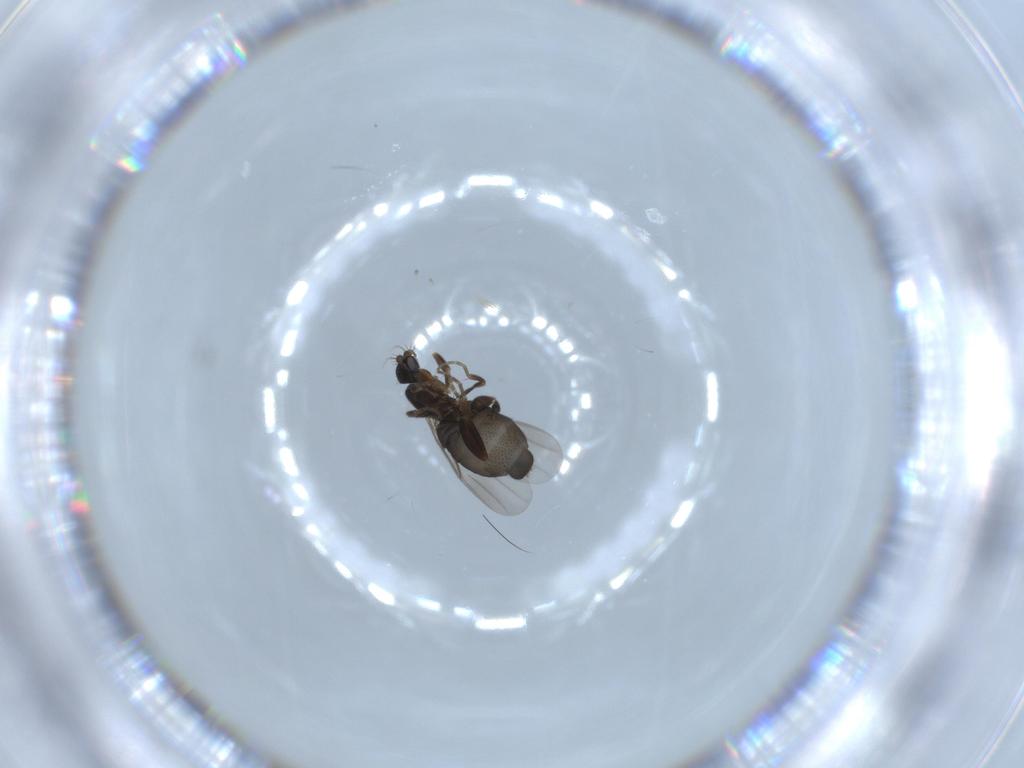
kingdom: Animalia
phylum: Arthropoda
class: Insecta
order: Diptera
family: Phoridae
